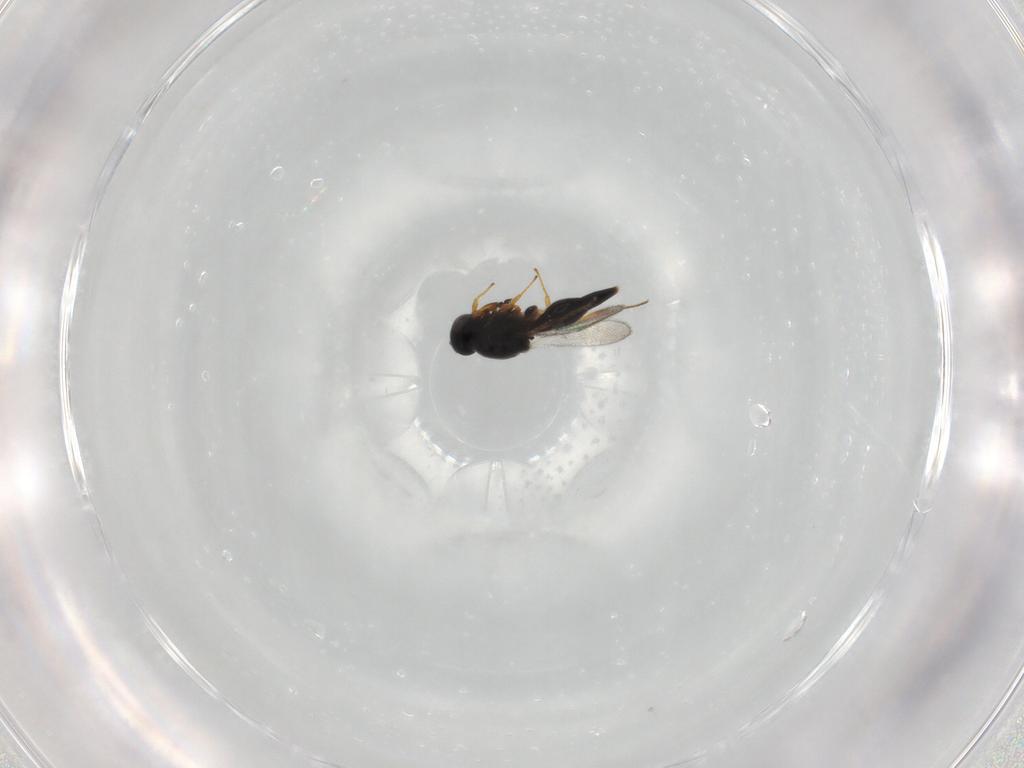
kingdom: Animalia
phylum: Arthropoda
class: Insecta
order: Hymenoptera
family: Platygastridae
